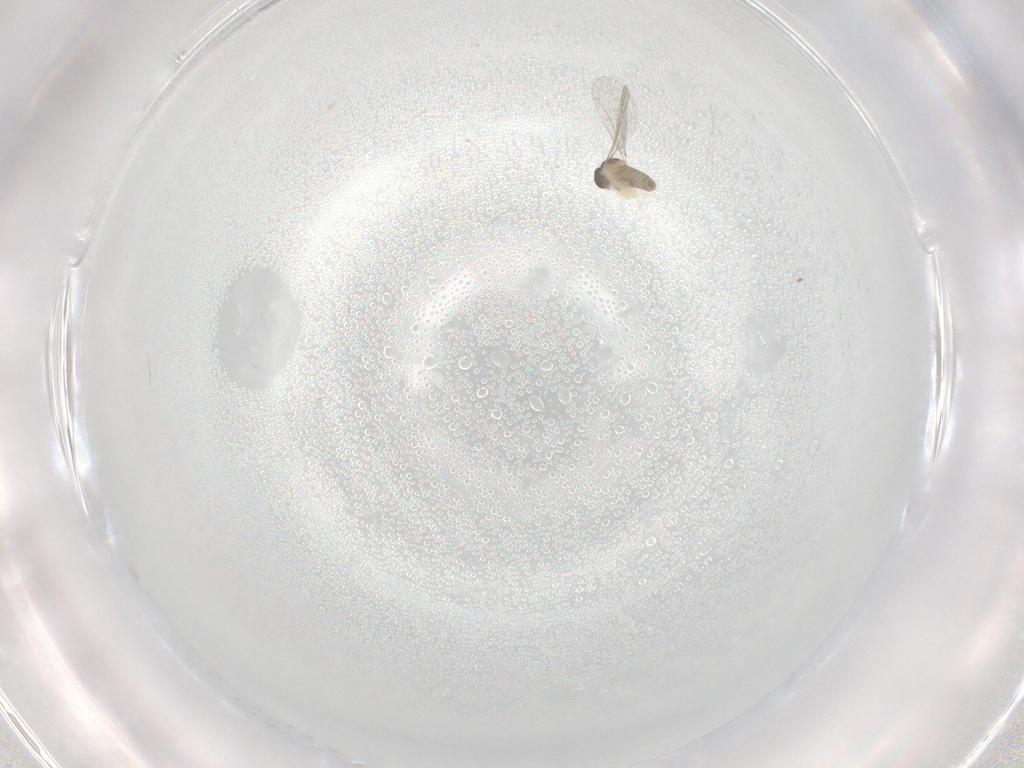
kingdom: Animalia
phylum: Arthropoda
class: Insecta
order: Diptera
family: Phoridae
